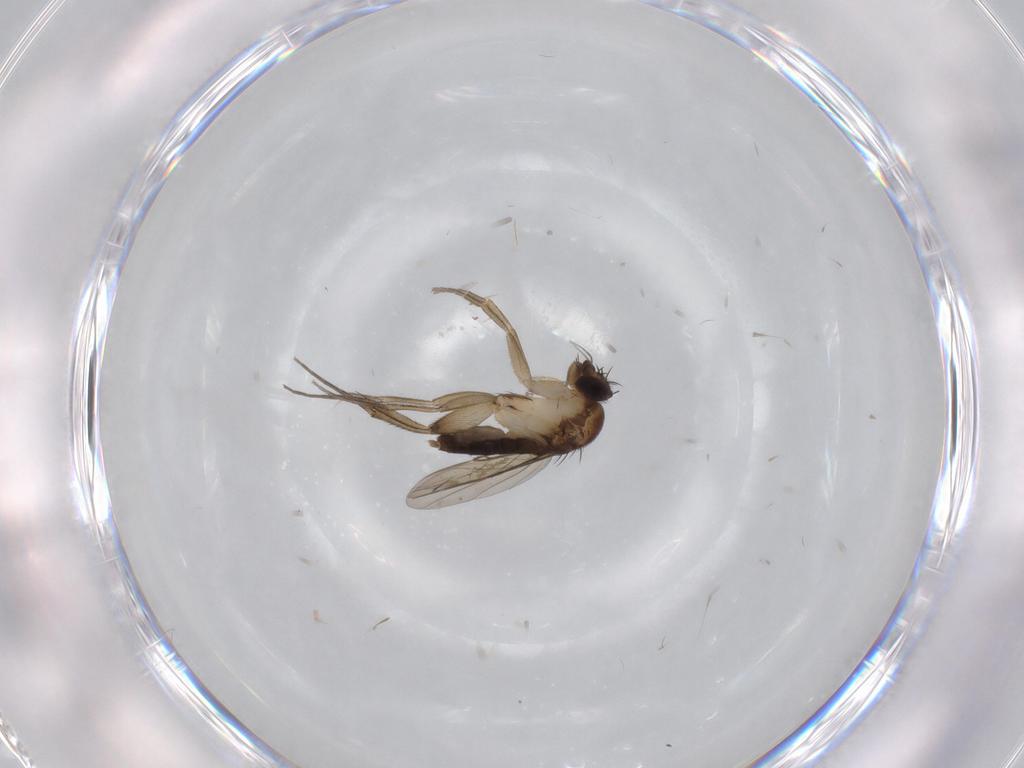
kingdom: Animalia
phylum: Arthropoda
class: Insecta
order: Diptera
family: Phoridae
